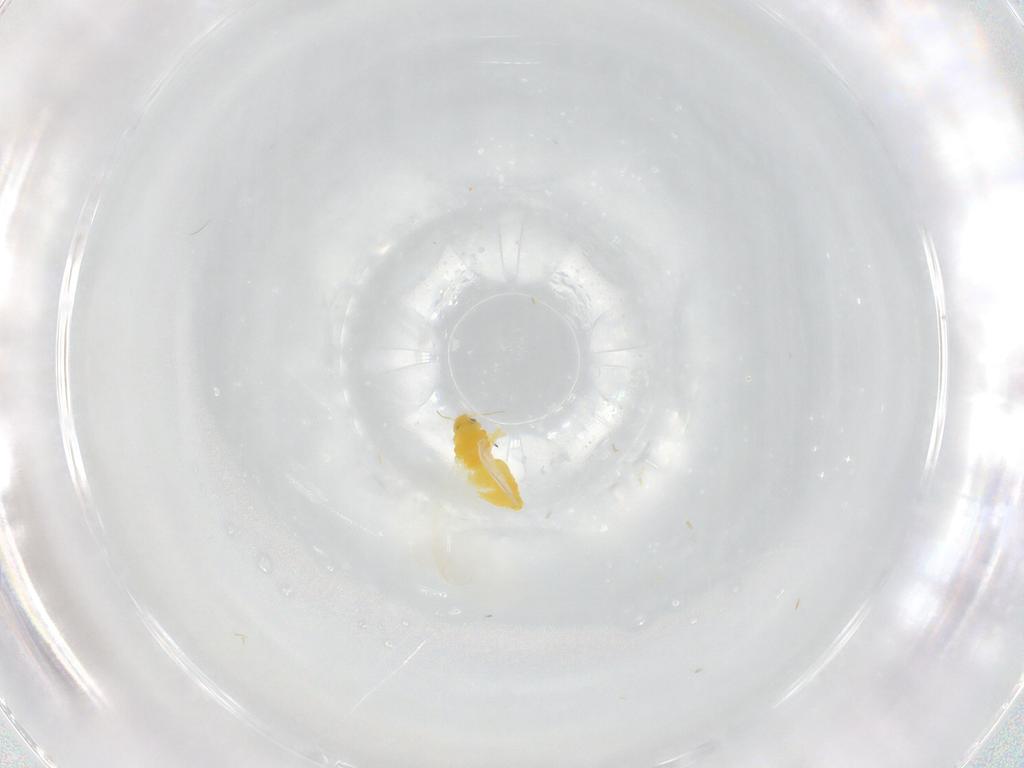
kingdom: Animalia
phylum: Arthropoda
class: Insecta
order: Hemiptera
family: Cicadellidae
